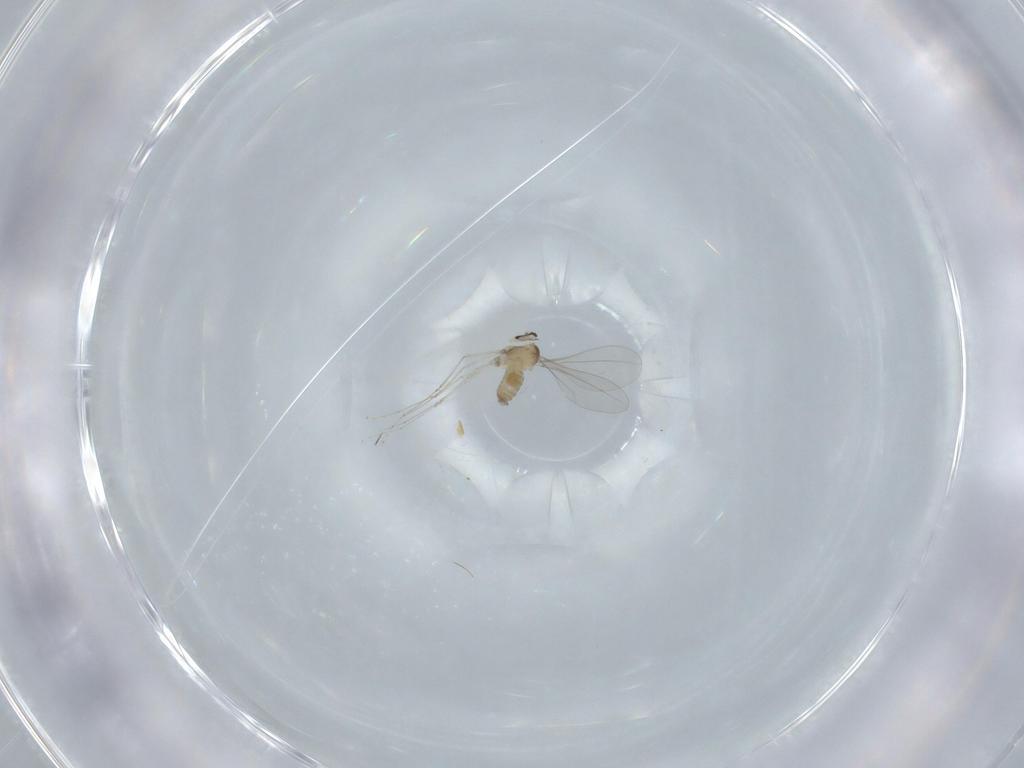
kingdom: Animalia
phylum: Arthropoda
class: Insecta
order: Diptera
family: Cecidomyiidae
